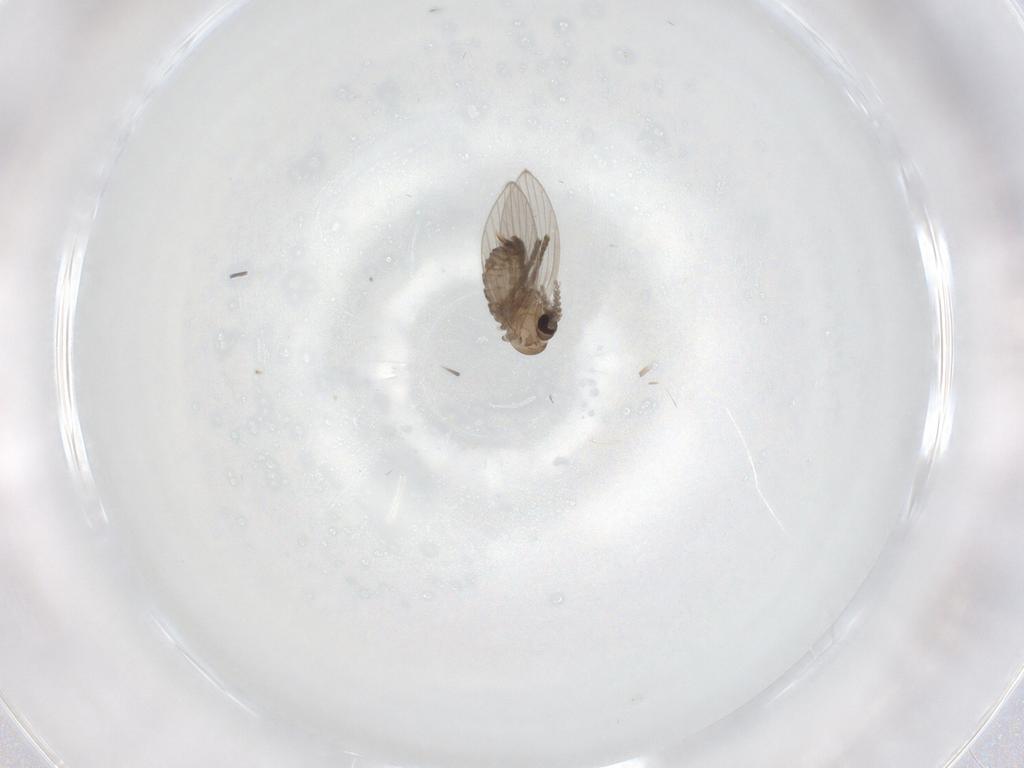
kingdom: Animalia
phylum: Arthropoda
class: Insecta
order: Diptera
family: Psychodidae
